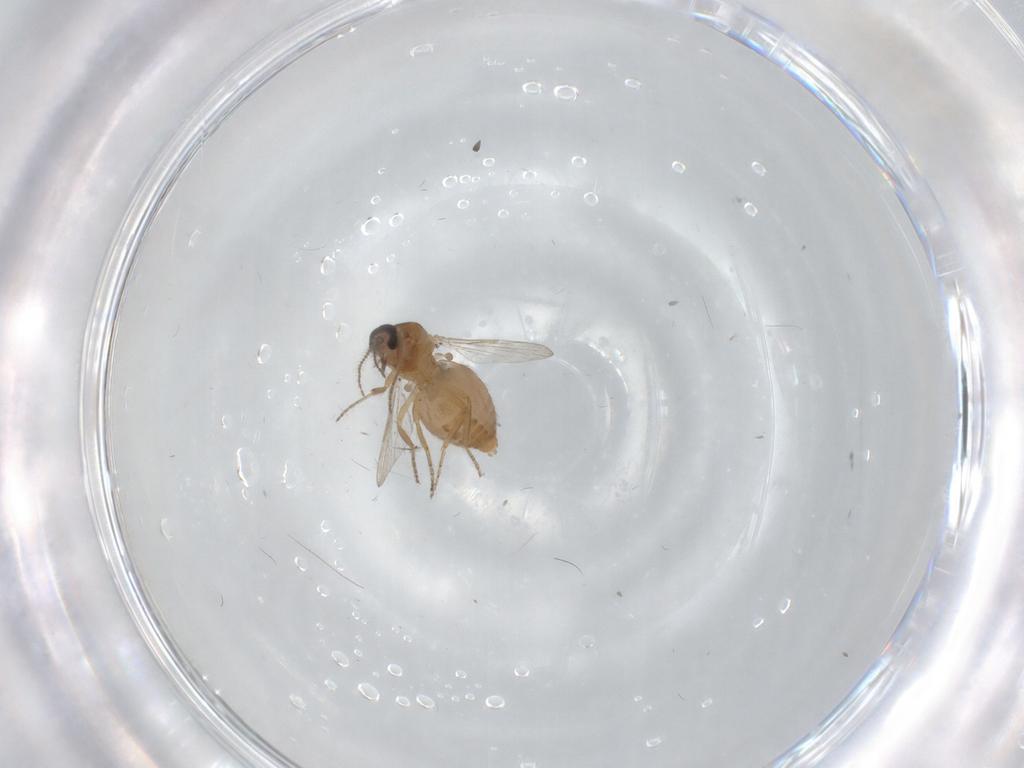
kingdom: Animalia
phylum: Arthropoda
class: Insecta
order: Diptera
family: Ceratopogonidae
